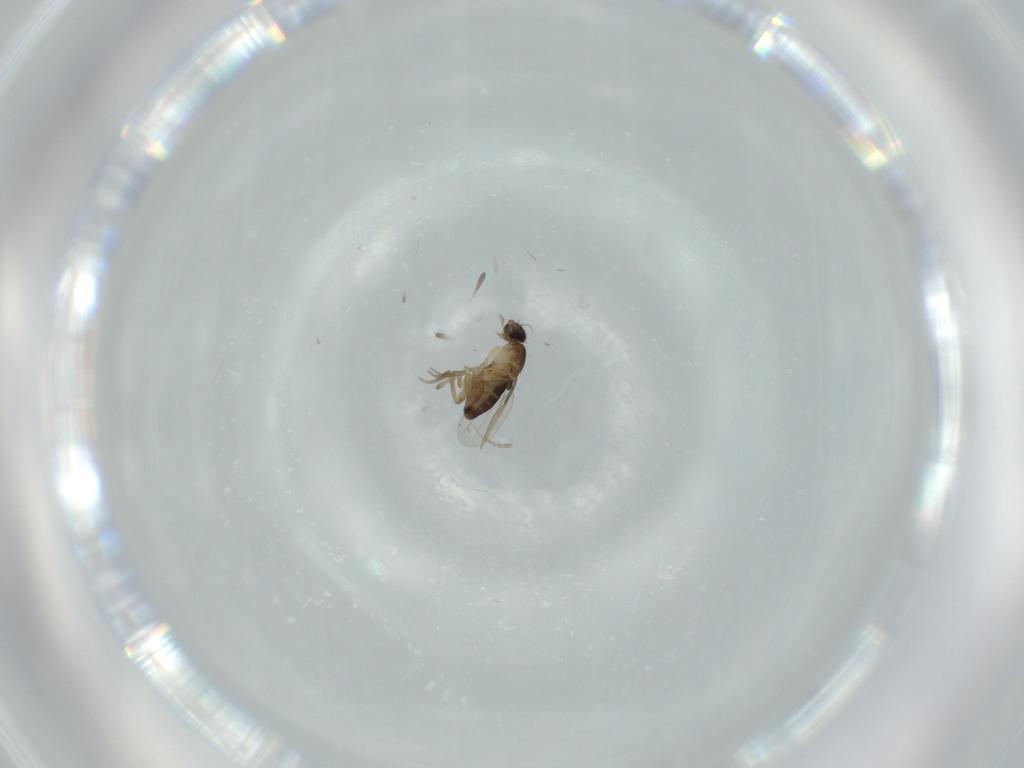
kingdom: Animalia
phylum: Arthropoda
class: Insecta
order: Diptera
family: Phoridae
